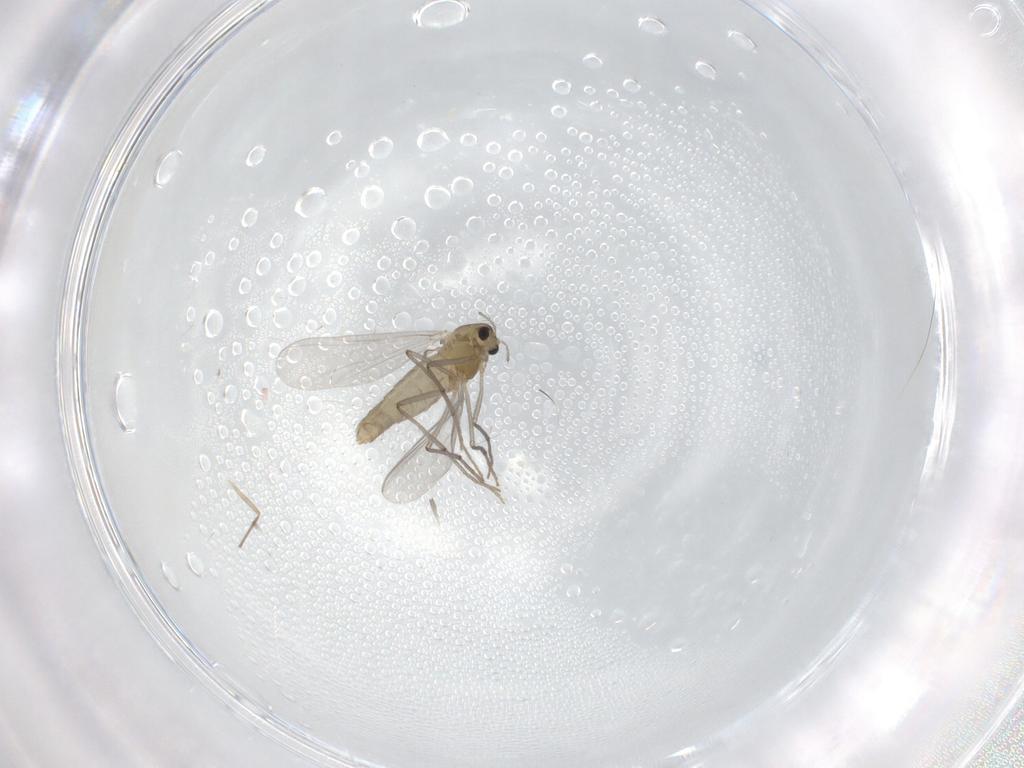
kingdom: Animalia
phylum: Arthropoda
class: Insecta
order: Diptera
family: Chironomidae
